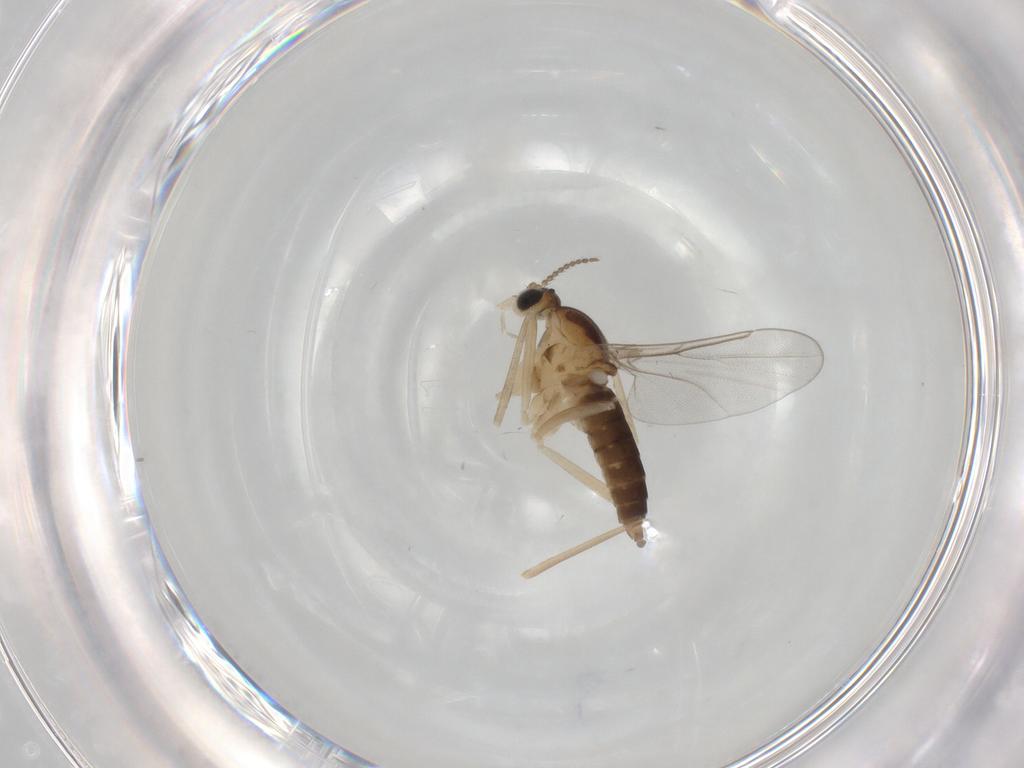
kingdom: Animalia
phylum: Arthropoda
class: Insecta
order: Diptera
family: Cecidomyiidae
